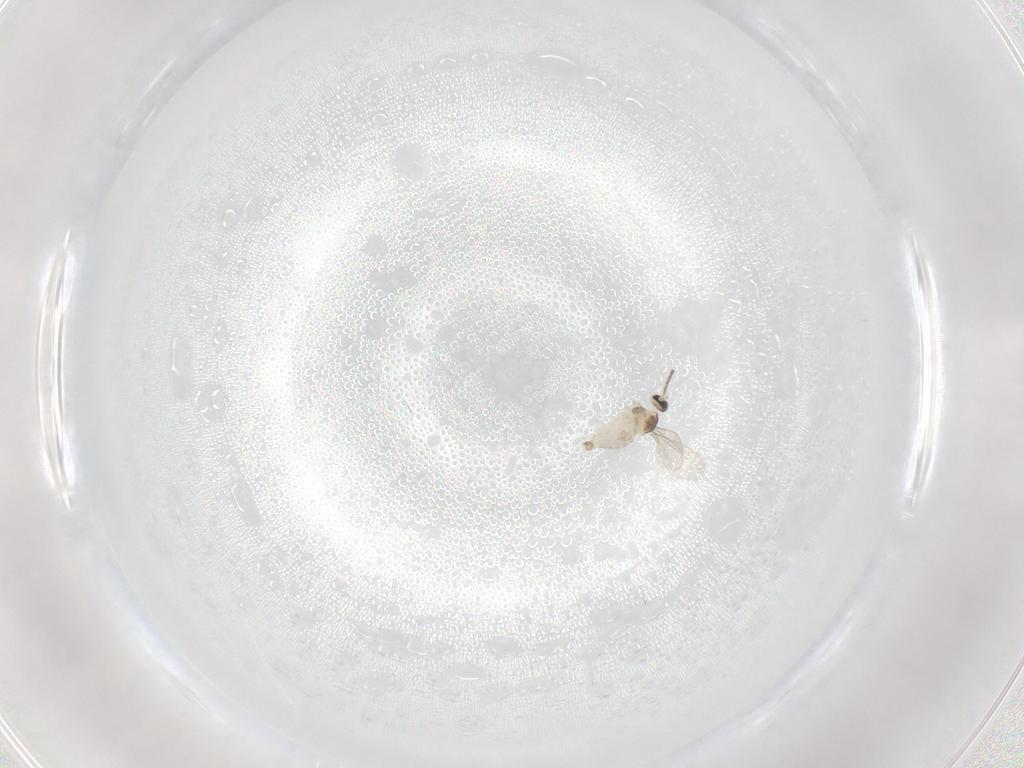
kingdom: Animalia
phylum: Arthropoda
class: Insecta
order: Diptera
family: Cecidomyiidae
